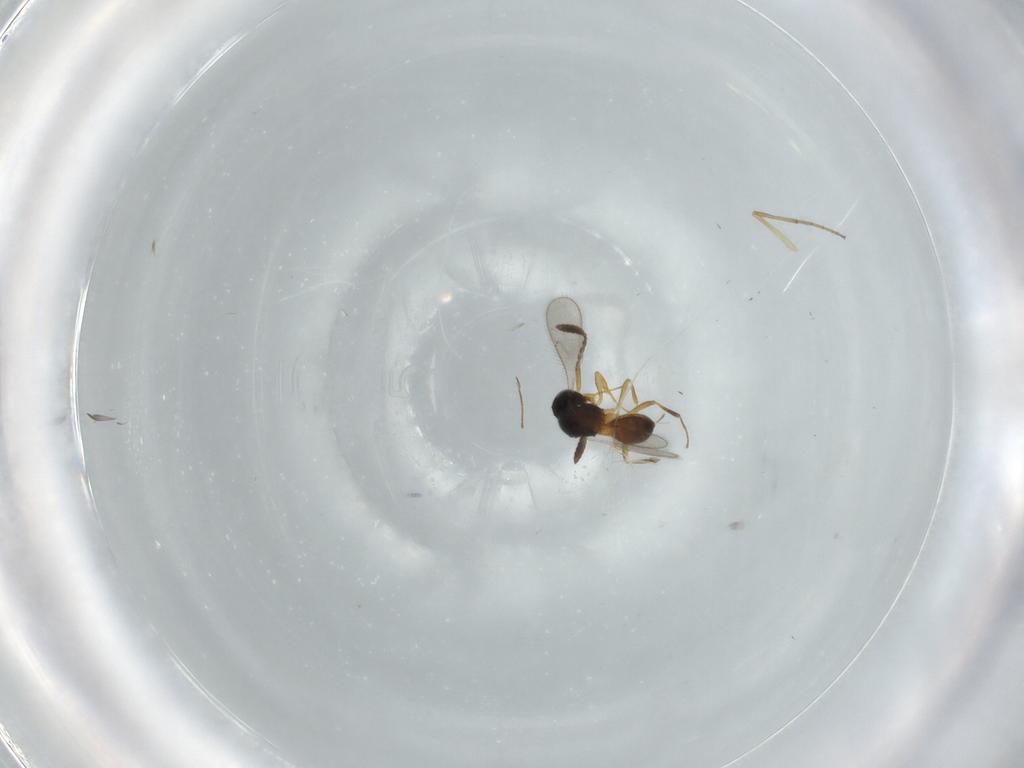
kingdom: Animalia
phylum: Arthropoda
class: Insecta
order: Hymenoptera
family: Scelionidae
